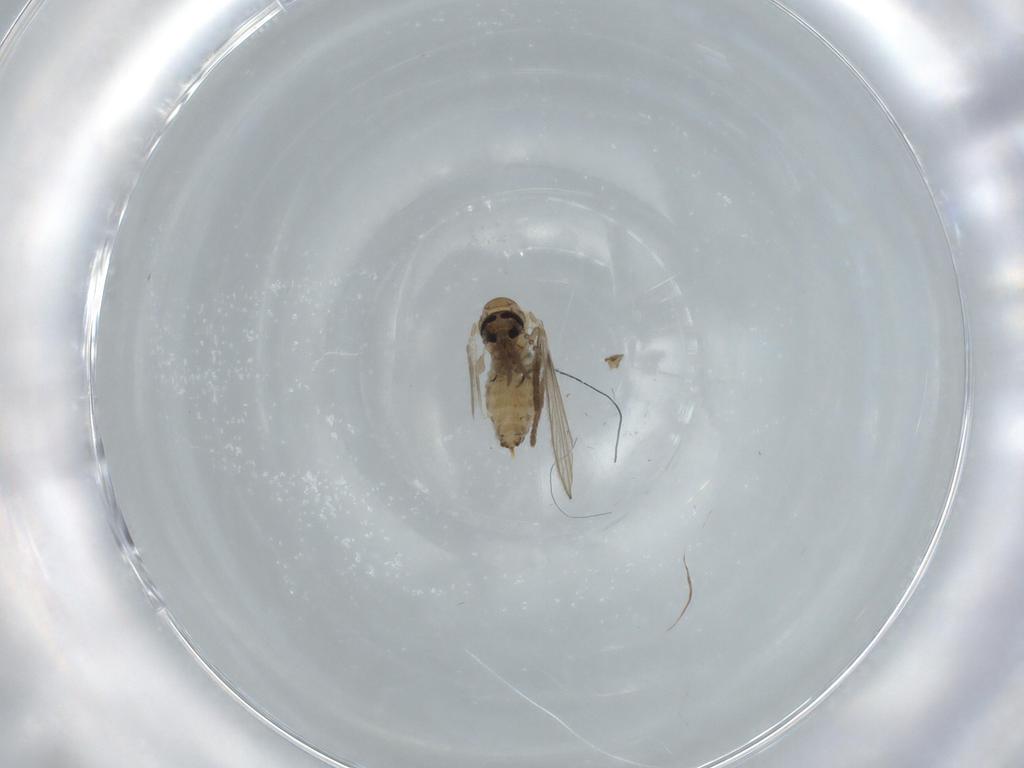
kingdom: Animalia
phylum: Arthropoda
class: Insecta
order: Diptera
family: Psychodidae
